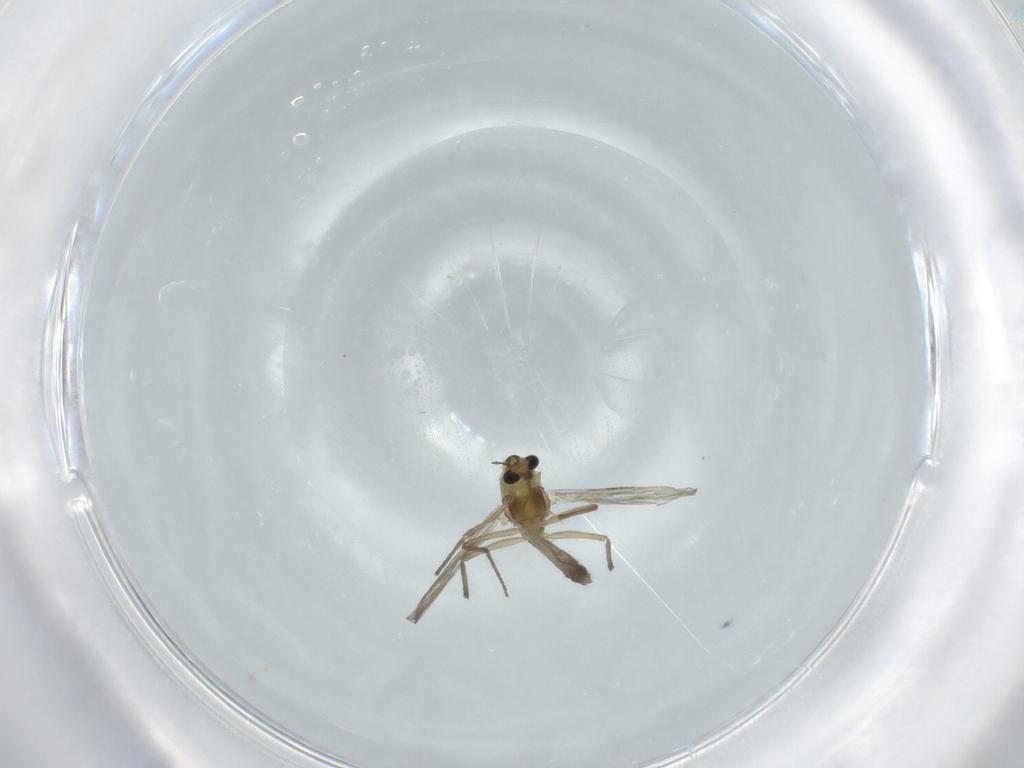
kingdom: Animalia
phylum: Arthropoda
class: Insecta
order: Diptera
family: Chironomidae
